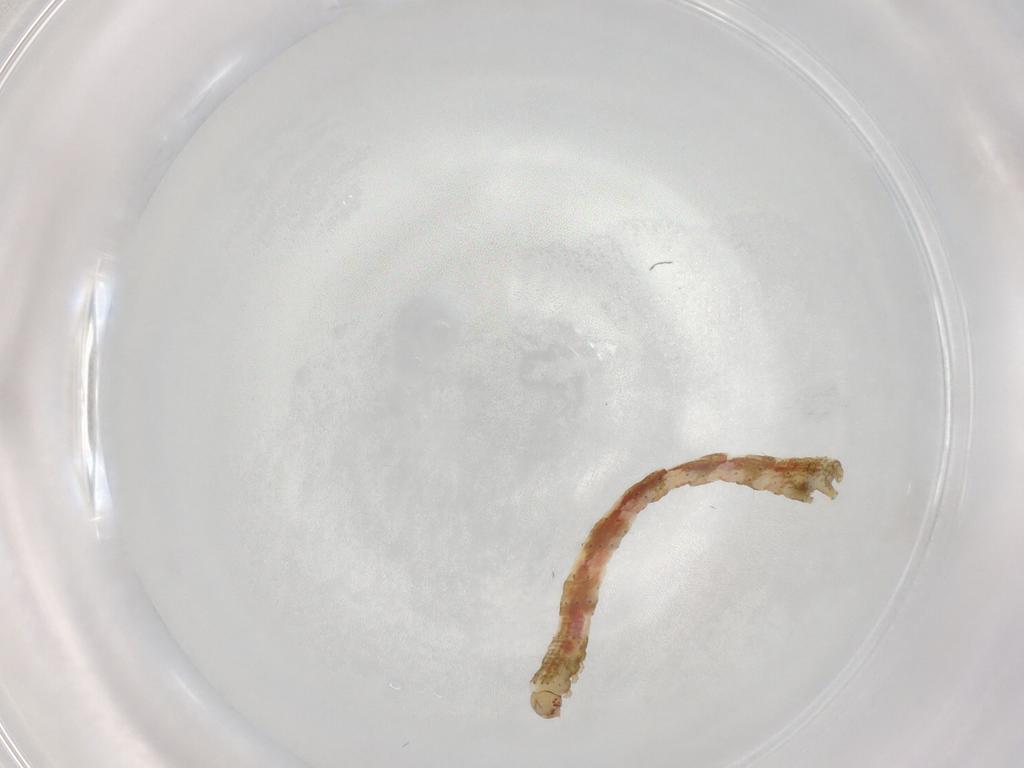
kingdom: Animalia
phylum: Arthropoda
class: Insecta
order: Lepidoptera
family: Geometridae
